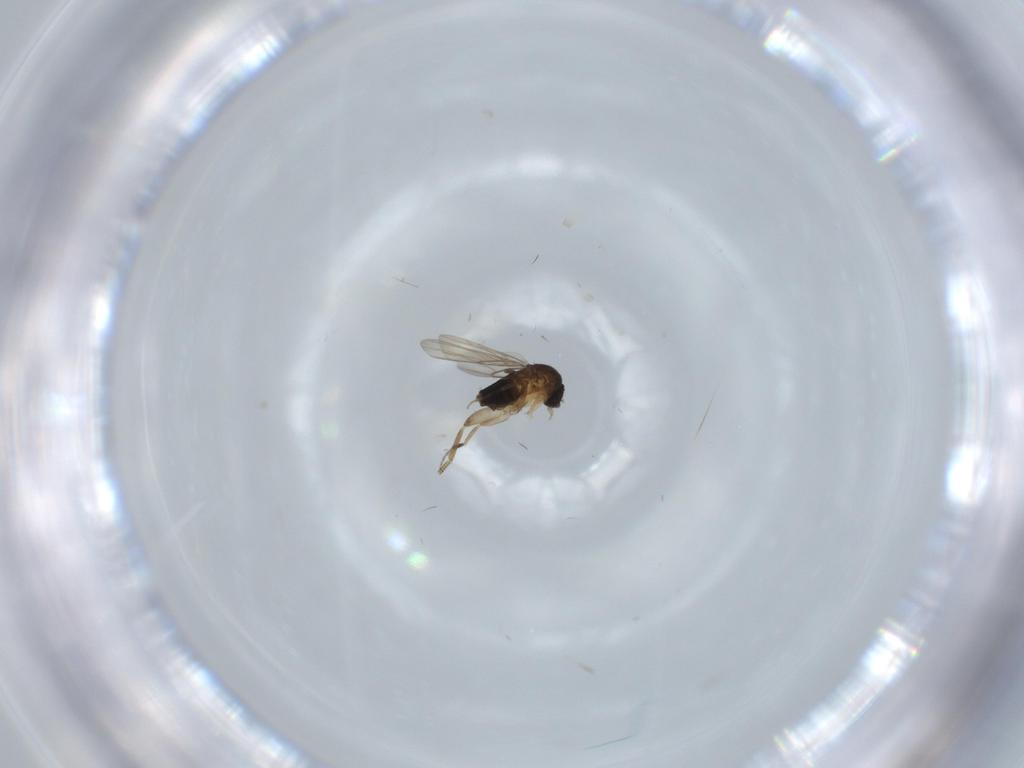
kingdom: Animalia
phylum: Arthropoda
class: Insecta
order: Diptera
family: Phoridae
